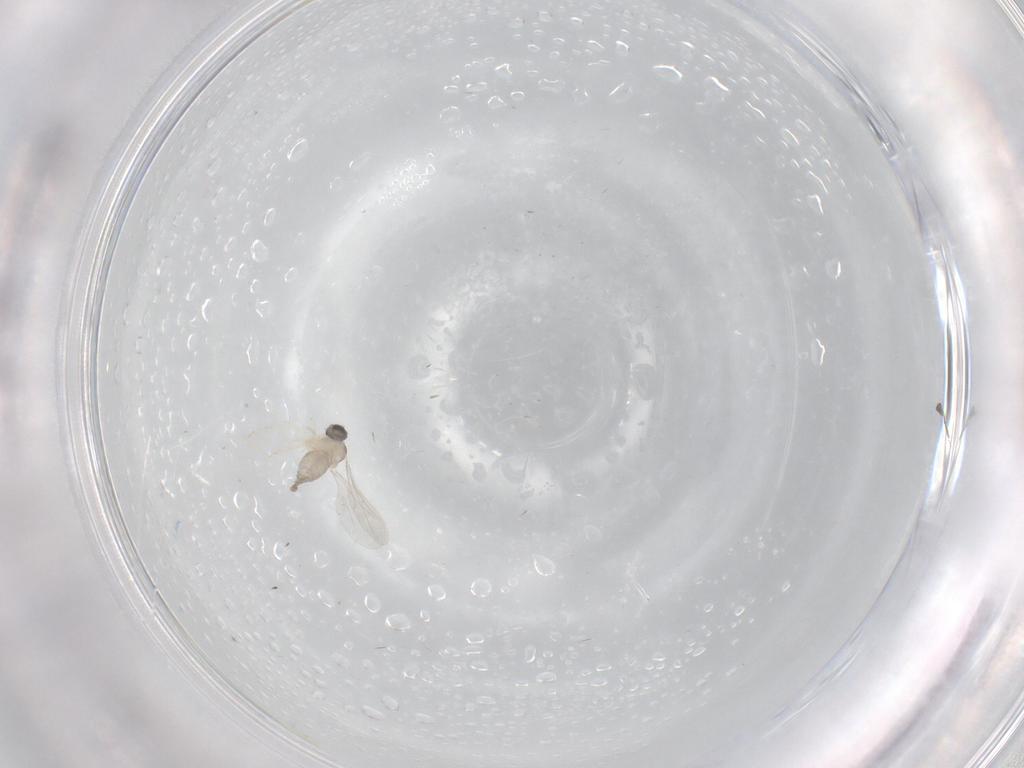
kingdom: Animalia
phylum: Arthropoda
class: Insecta
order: Diptera
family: Cecidomyiidae
